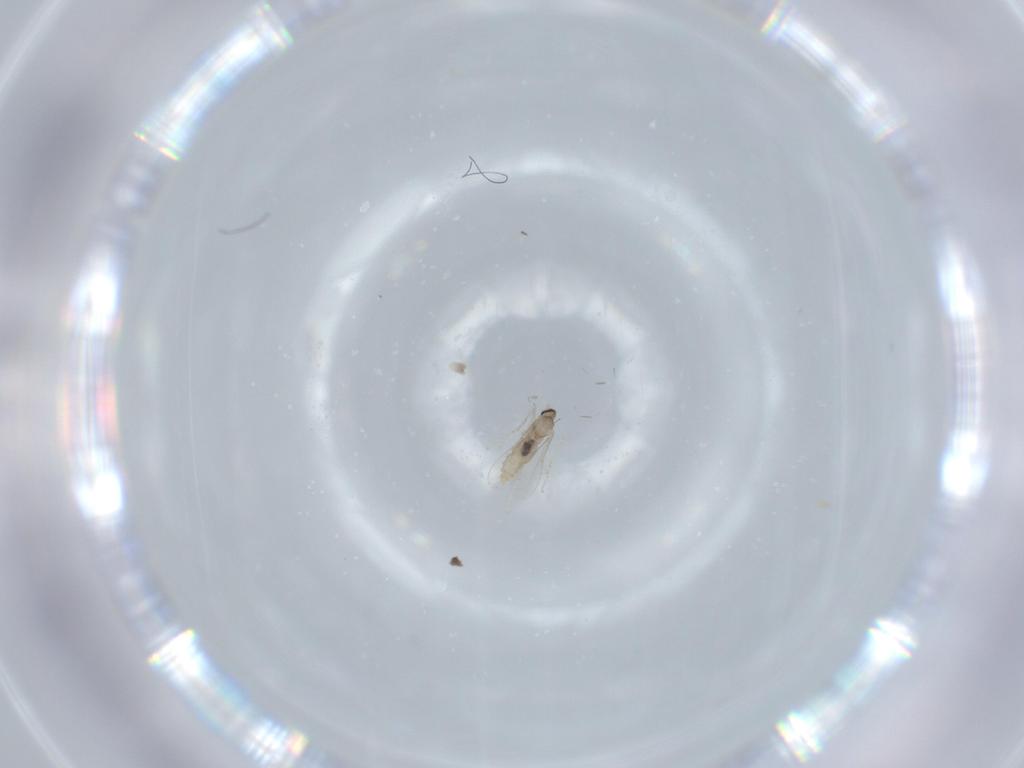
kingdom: Animalia
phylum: Arthropoda
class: Insecta
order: Diptera
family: Cecidomyiidae
